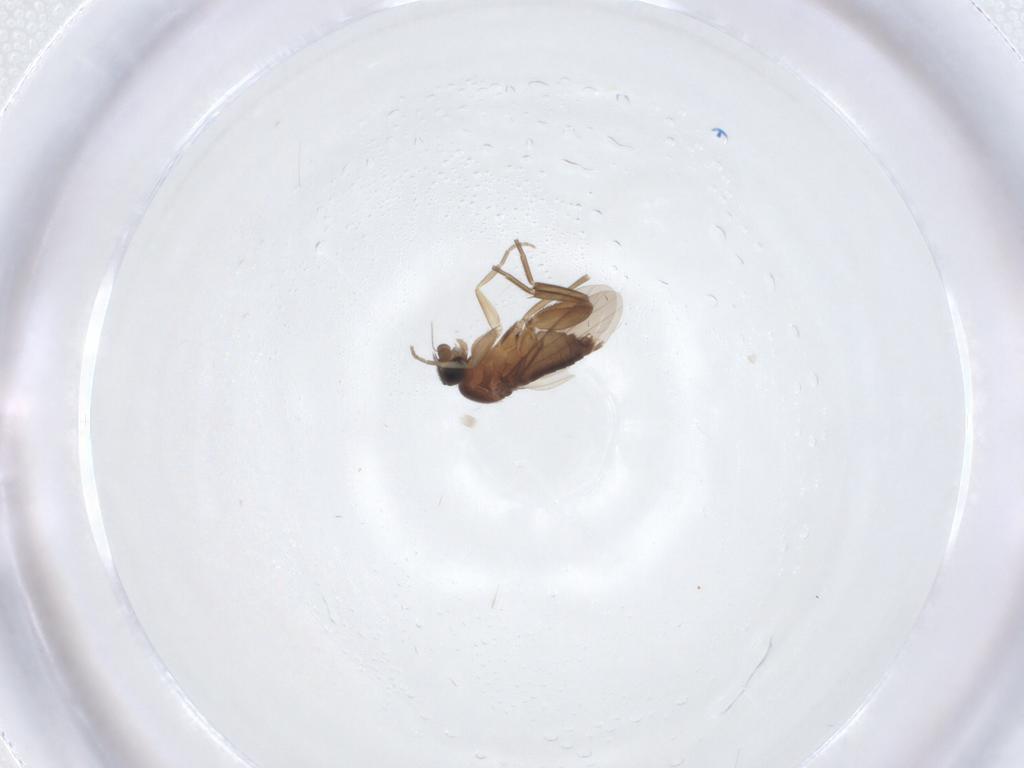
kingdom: Animalia
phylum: Arthropoda
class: Insecta
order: Diptera
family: Phoridae
